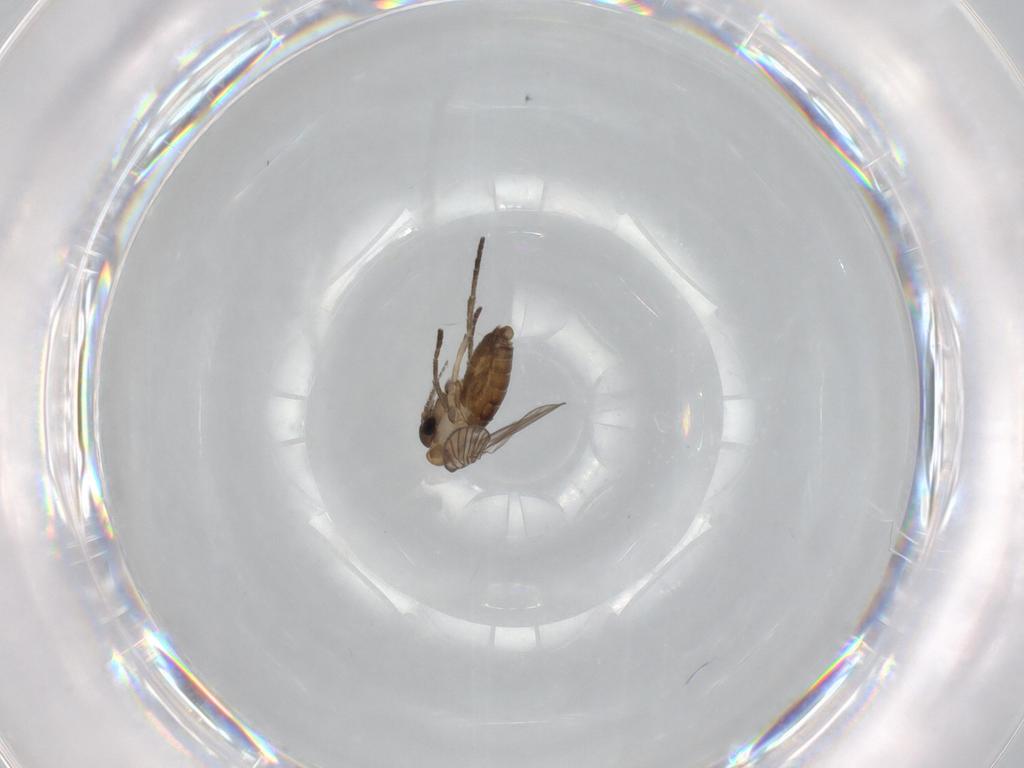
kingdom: Animalia
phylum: Arthropoda
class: Insecta
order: Diptera
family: Psychodidae
